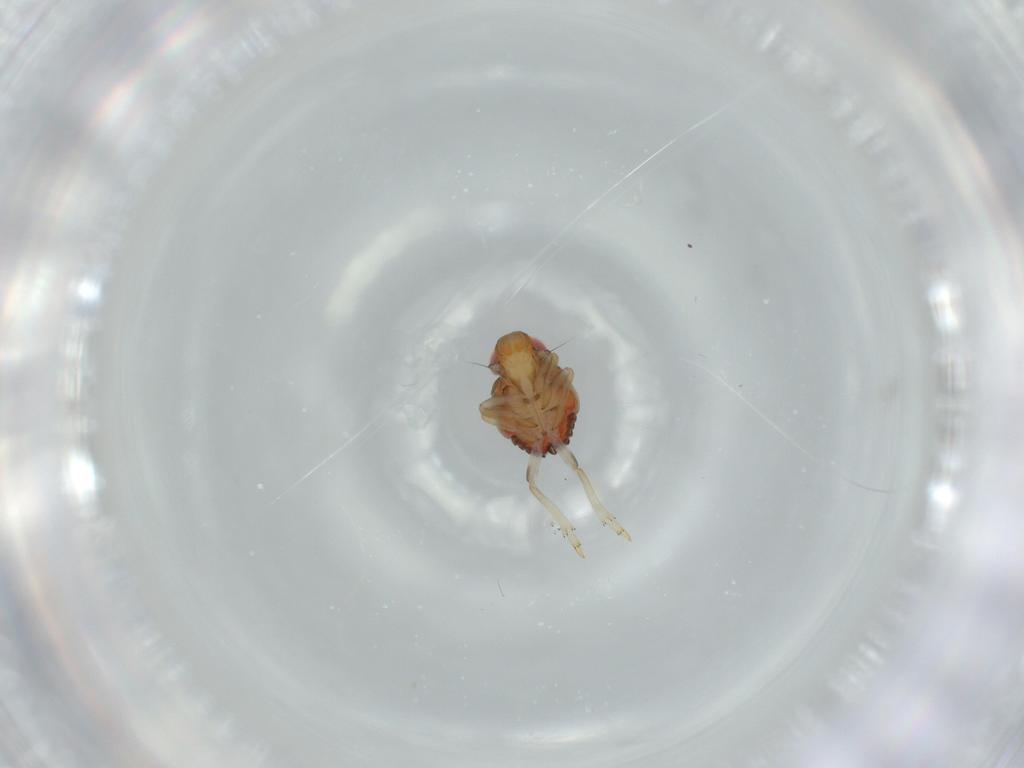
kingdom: Animalia
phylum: Arthropoda
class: Insecta
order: Hemiptera
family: Issidae
